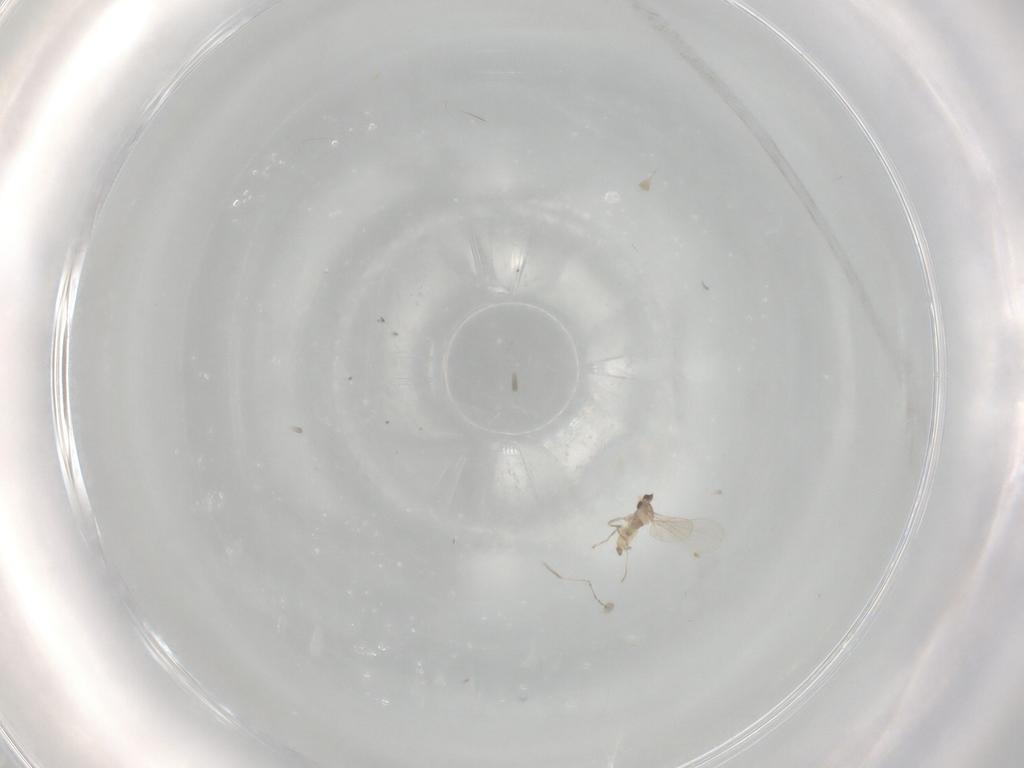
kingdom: Animalia
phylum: Arthropoda
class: Insecta
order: Diptera
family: Cecidomyiidae
